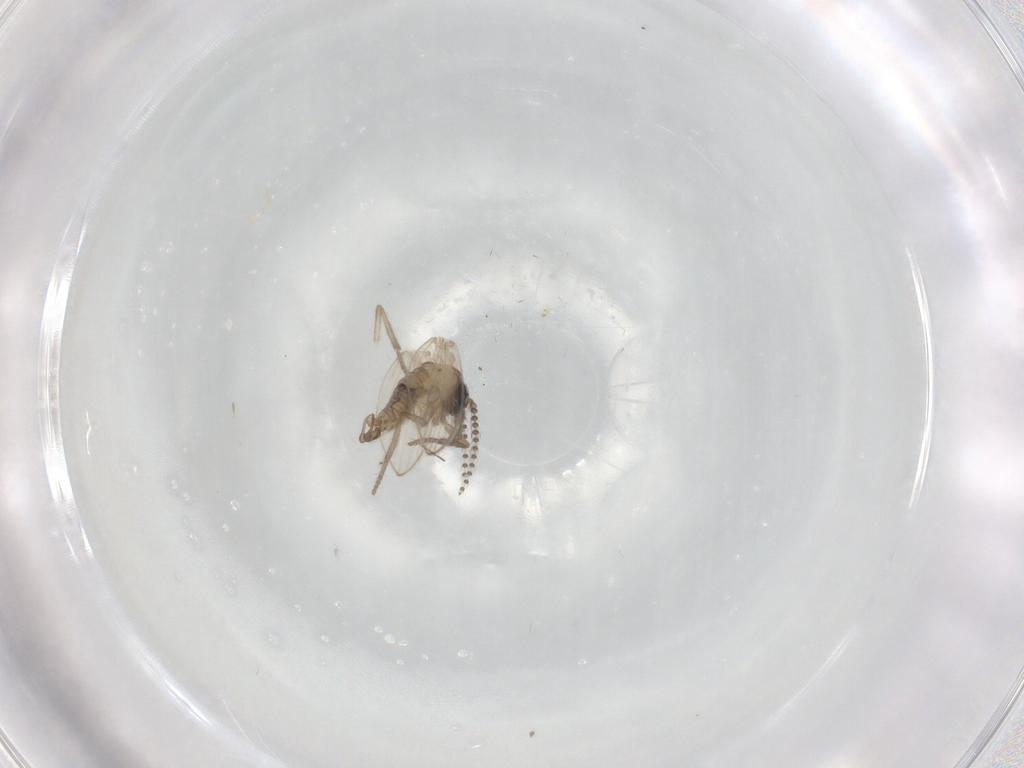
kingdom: Animalia
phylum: Arthropoda
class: Insecta
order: Diptera
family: Psychodidae
